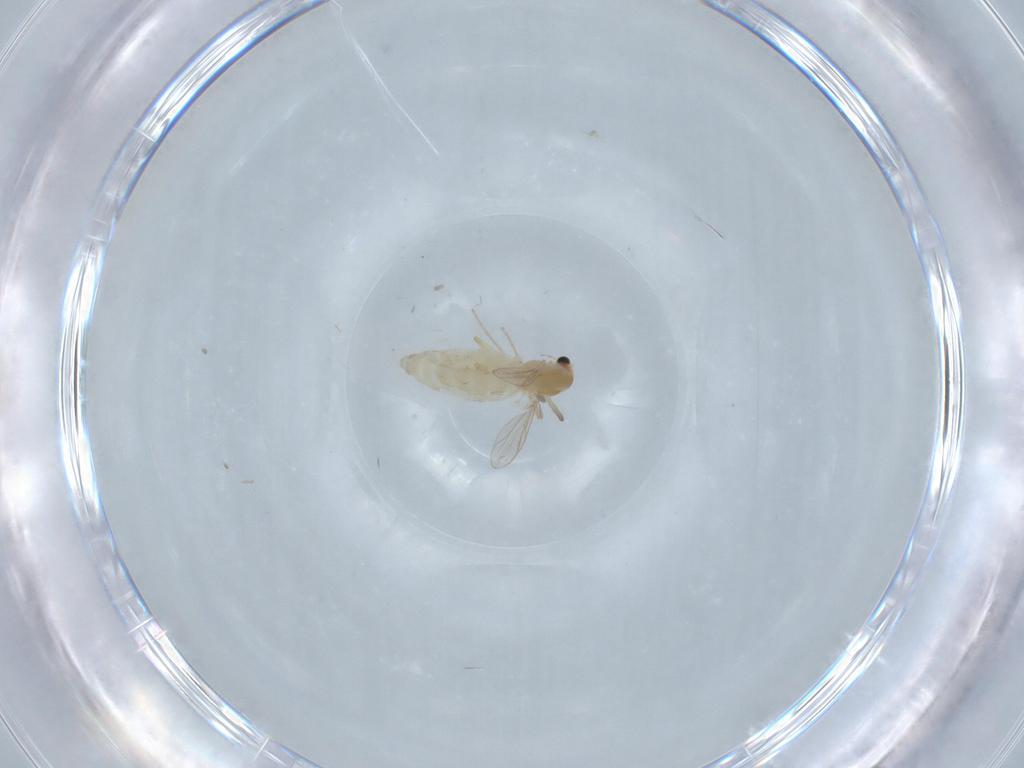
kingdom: Animalia
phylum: Arthropoda
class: Insecta
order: Diptera
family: Chironomidae
